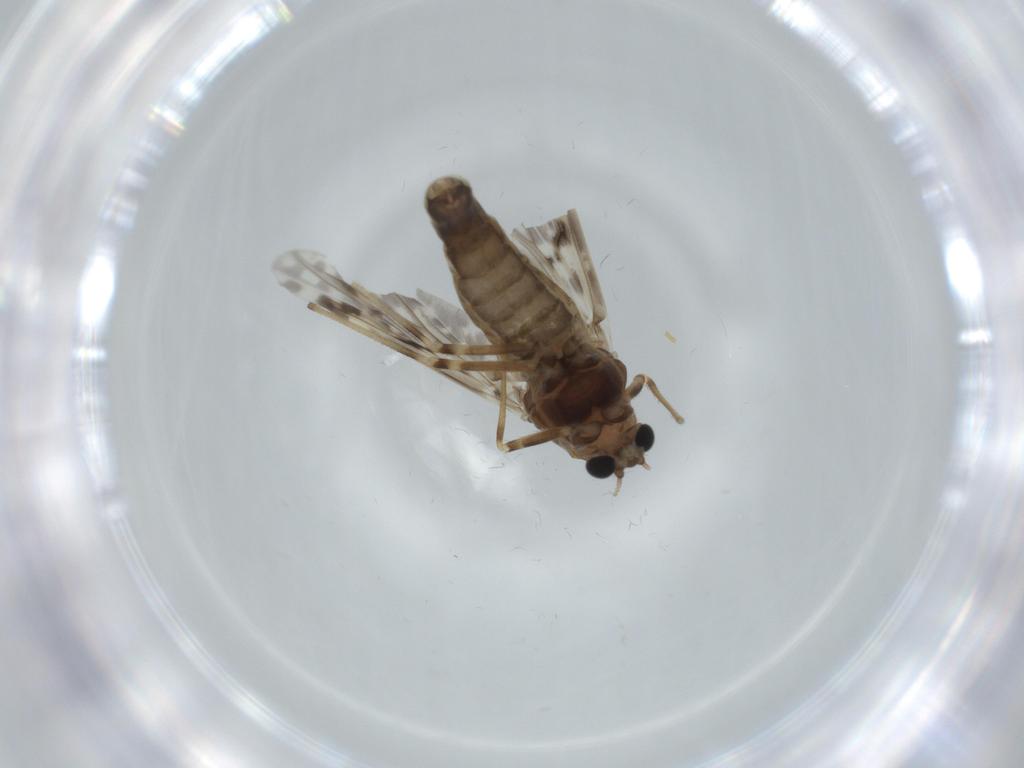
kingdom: Animalia
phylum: Arthropoda
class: Insecta
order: Diptera
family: Chironomidae
